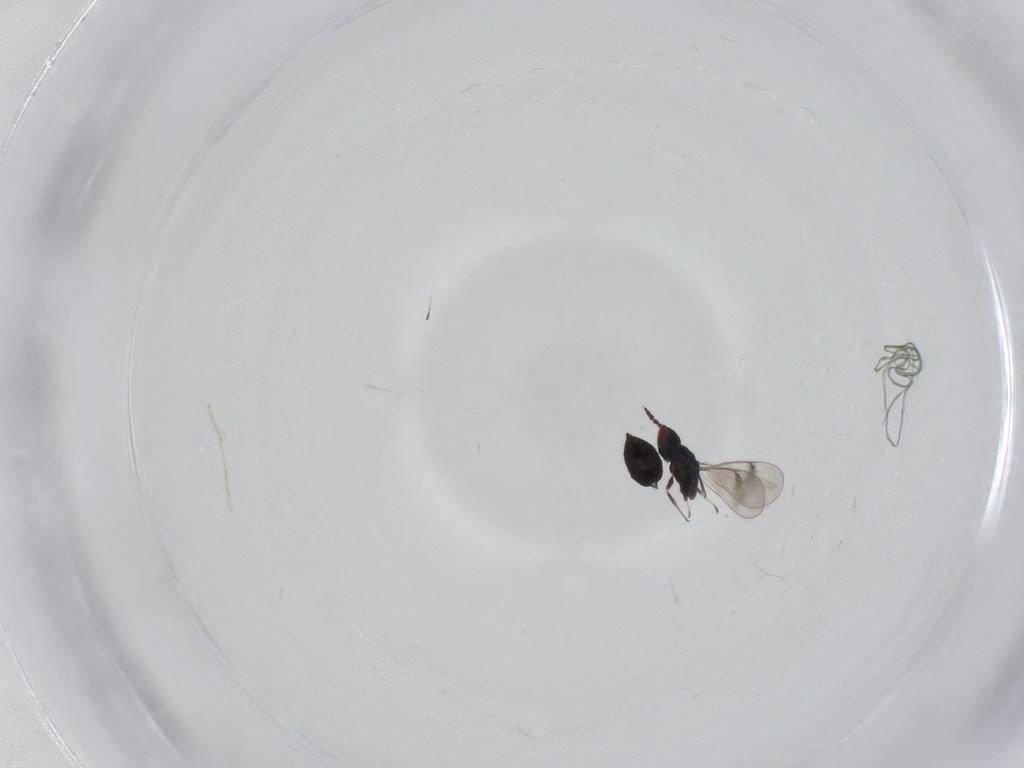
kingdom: Animalia
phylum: Arthropoda
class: Insecta
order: Hymenoptera
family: Eulophidae
